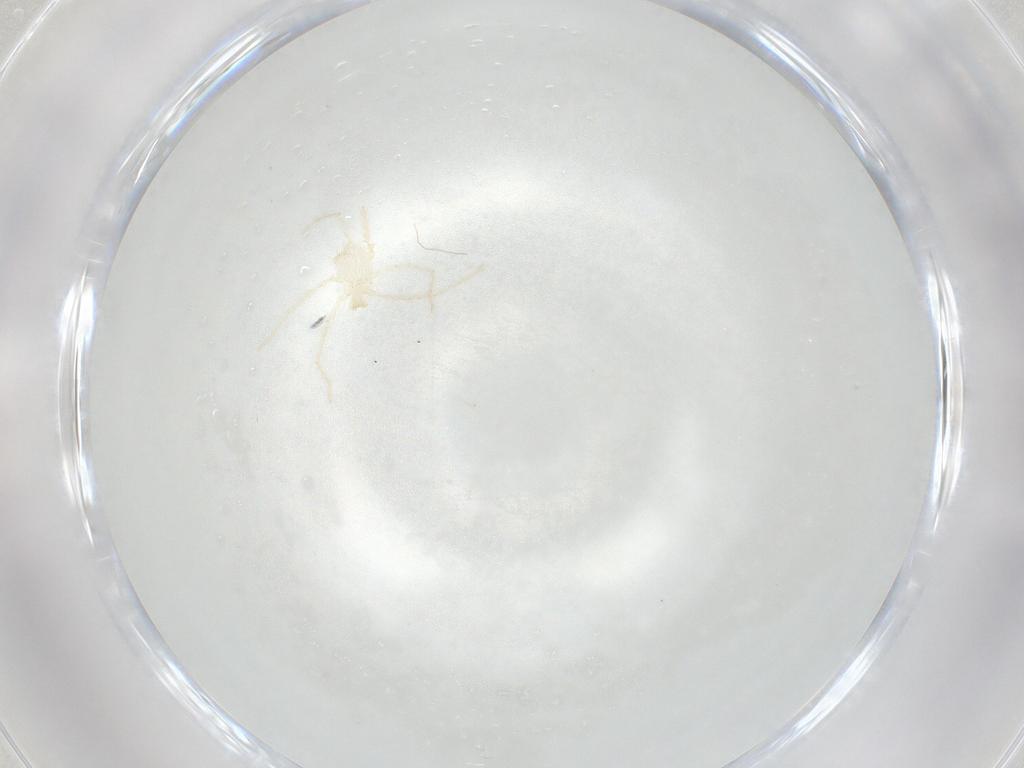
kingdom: Animalia
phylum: Arthropoda
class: Arachnida
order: Trombidiformes
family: Erythraeidae
